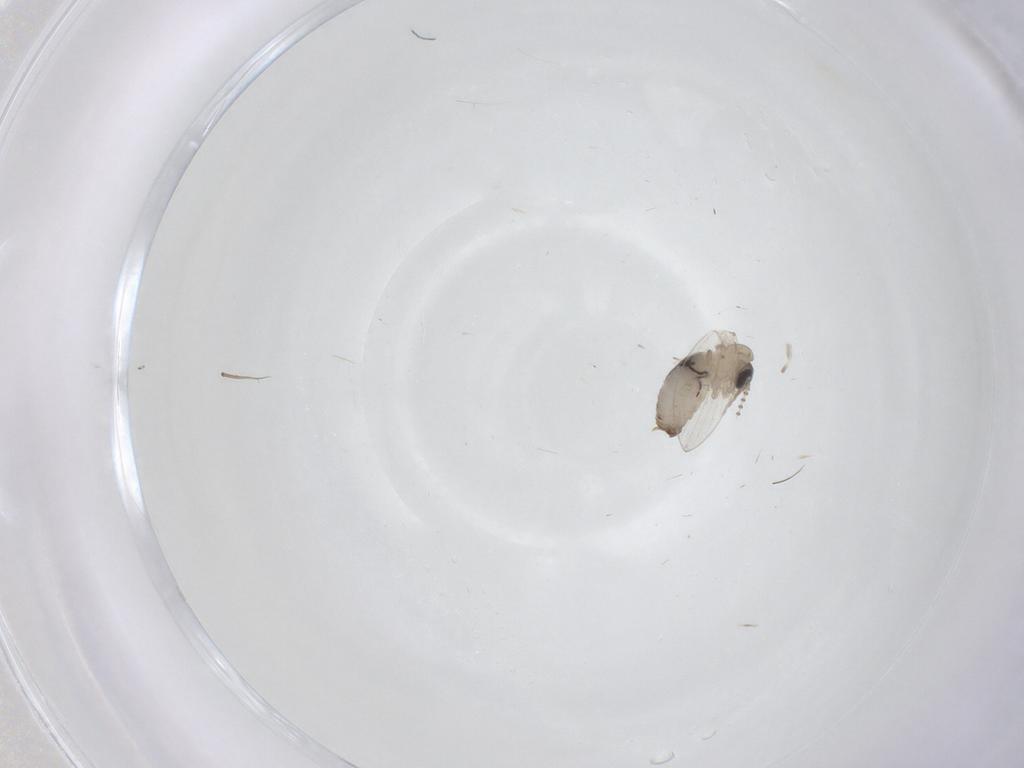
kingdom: Animalia
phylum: Arthropoda
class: Insecta
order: Diptera
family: Psychodidae
